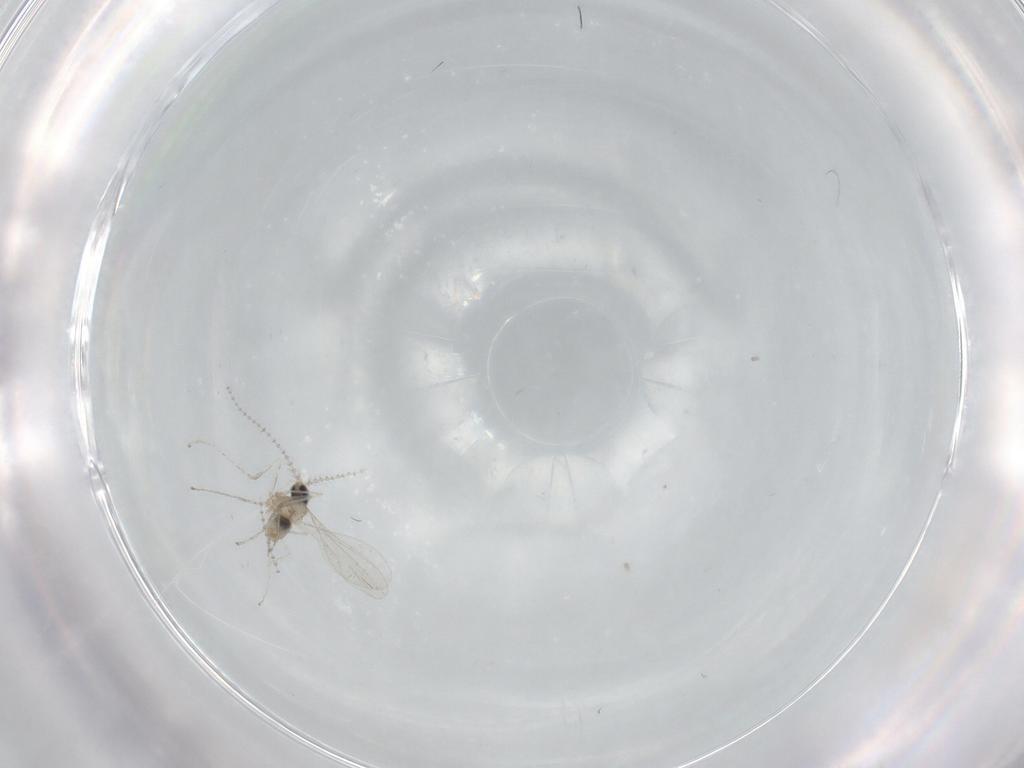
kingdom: Animalia
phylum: Arthropoda
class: Insecta
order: Diptera
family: Cecidomyiidae
